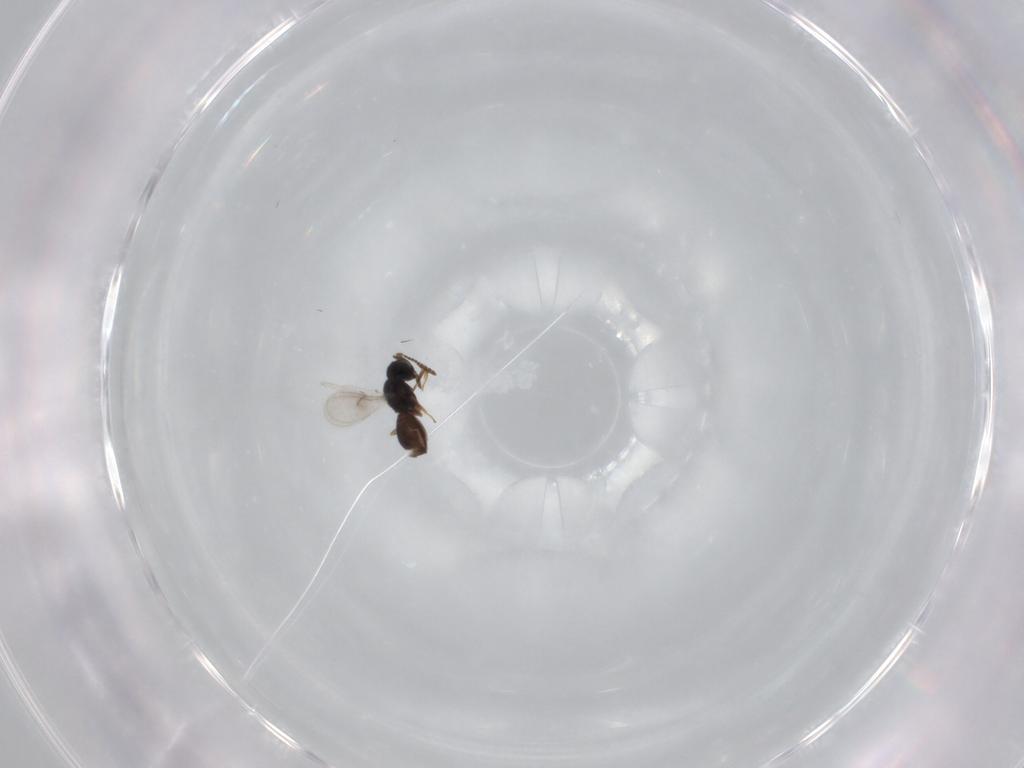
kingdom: Animalia
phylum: Arthropoda
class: Insecta
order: Hymenoptera
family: Scelionidae
